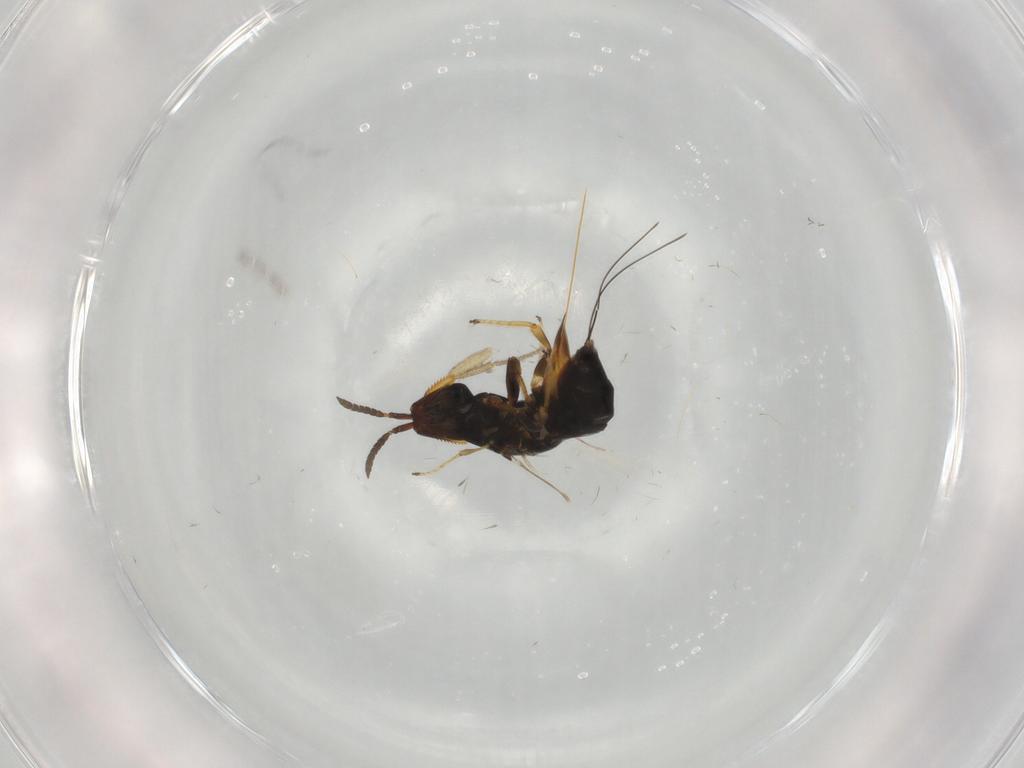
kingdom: Animalia
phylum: Arthropoda
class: Insecta
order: Hymenoptera
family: Agaonidae
